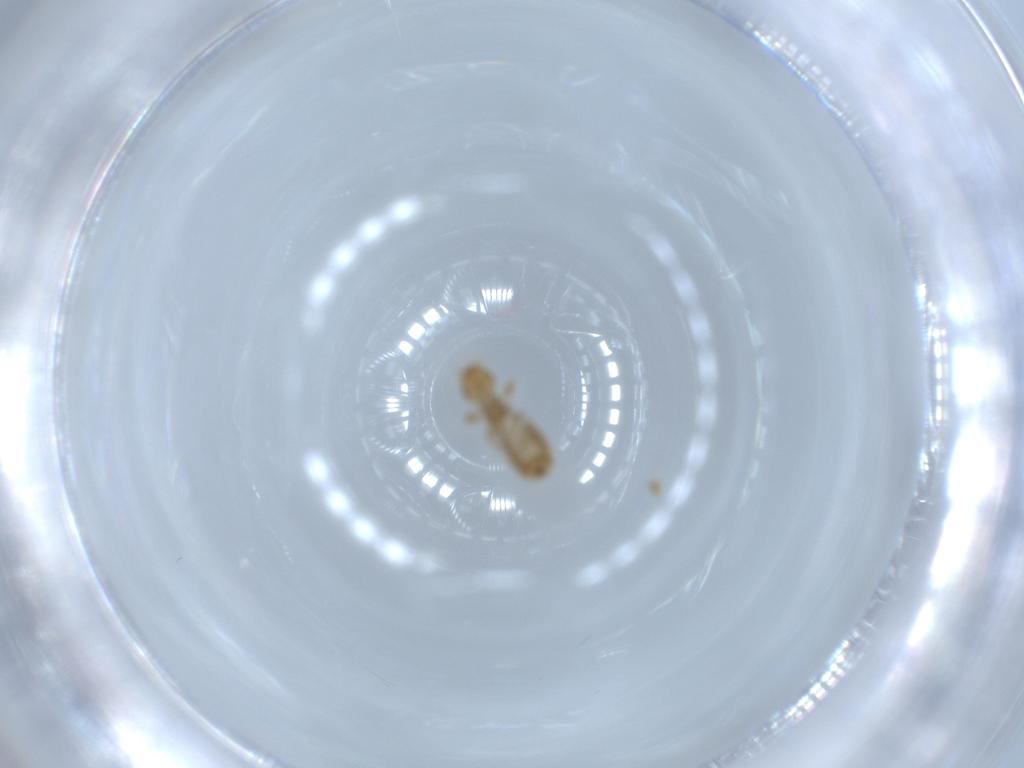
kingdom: Animalia
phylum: Arthropoda
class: Insecta
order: Psocodea
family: Liposcelididae
